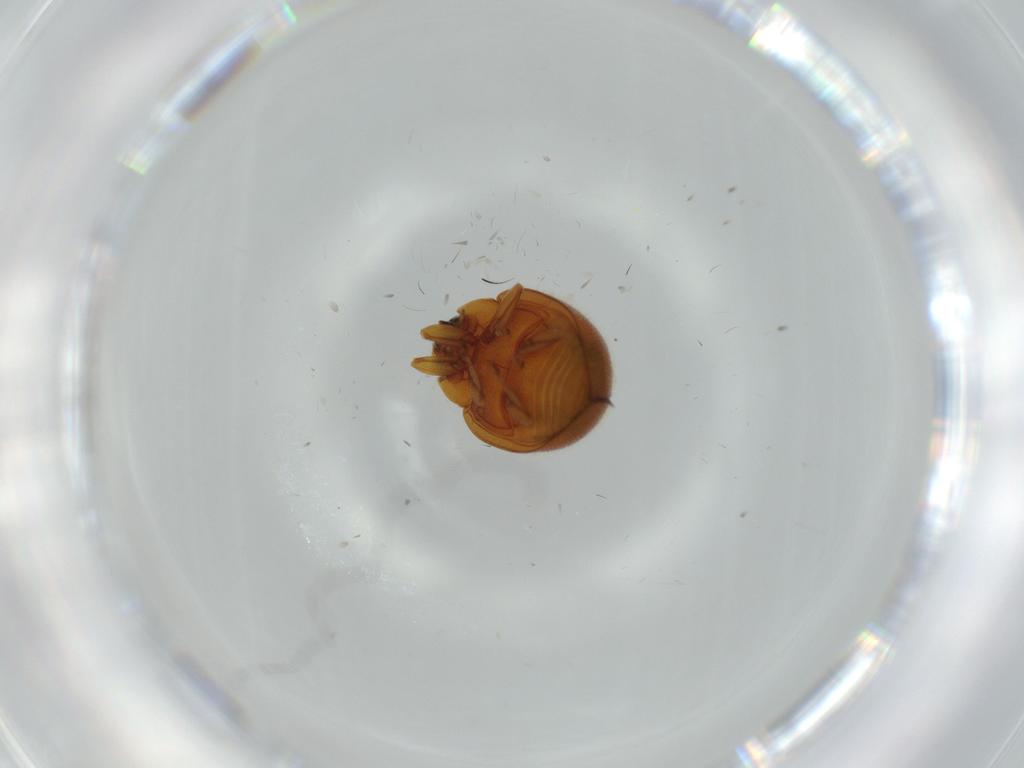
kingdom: Animalia
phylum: Arthropoda
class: Insecta
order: Coleoptera
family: Coccinellidae
